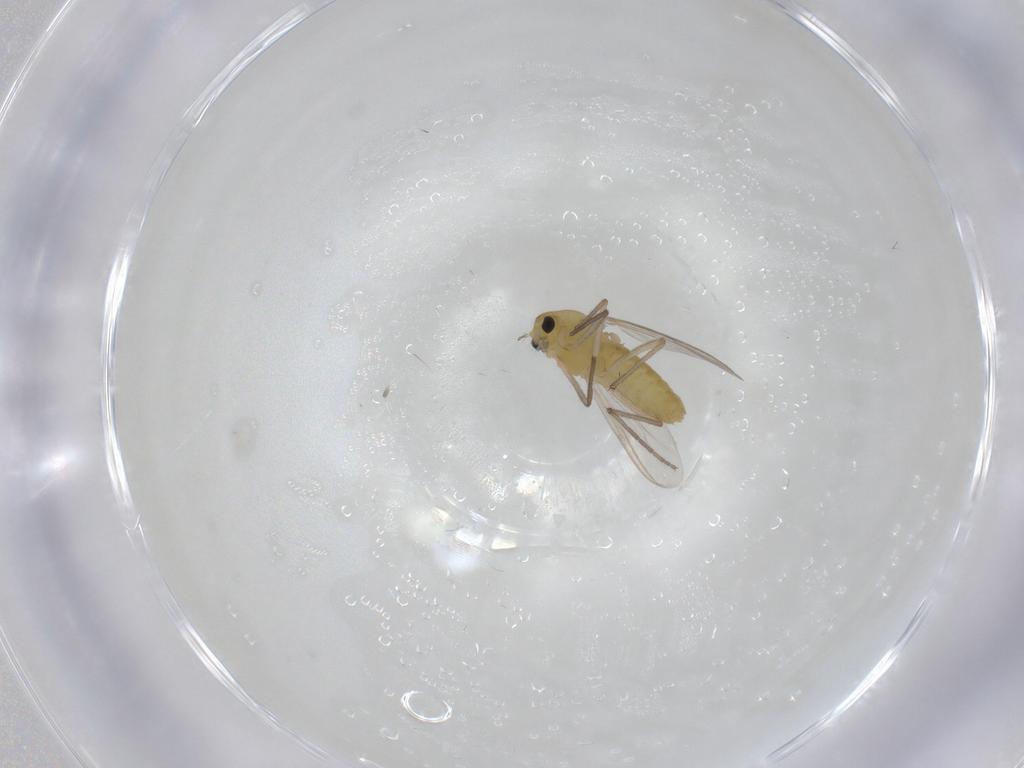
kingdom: Animalia
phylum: Arthropoda
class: Insecta
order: Diptera
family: Chironomidae
